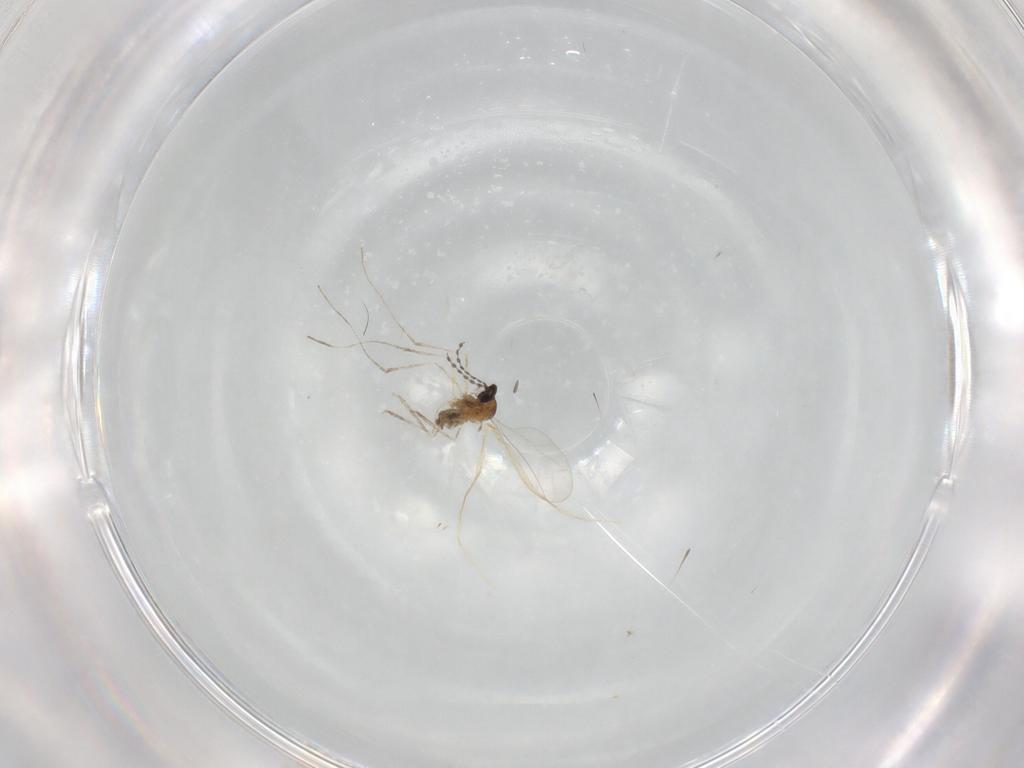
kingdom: Animalia
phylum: Arthropoda
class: Insecta
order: Diptera
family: Cecidomyiidae
